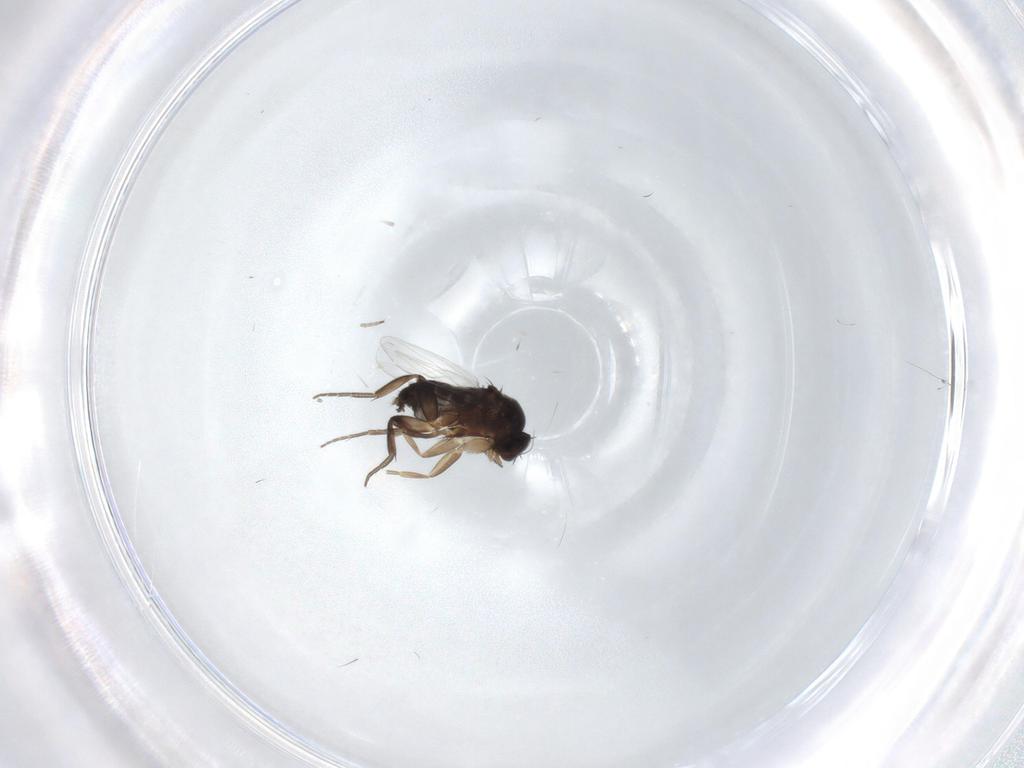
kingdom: Animalia
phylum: Arthropoda
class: Insecta
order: Diptera
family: Phoridae
